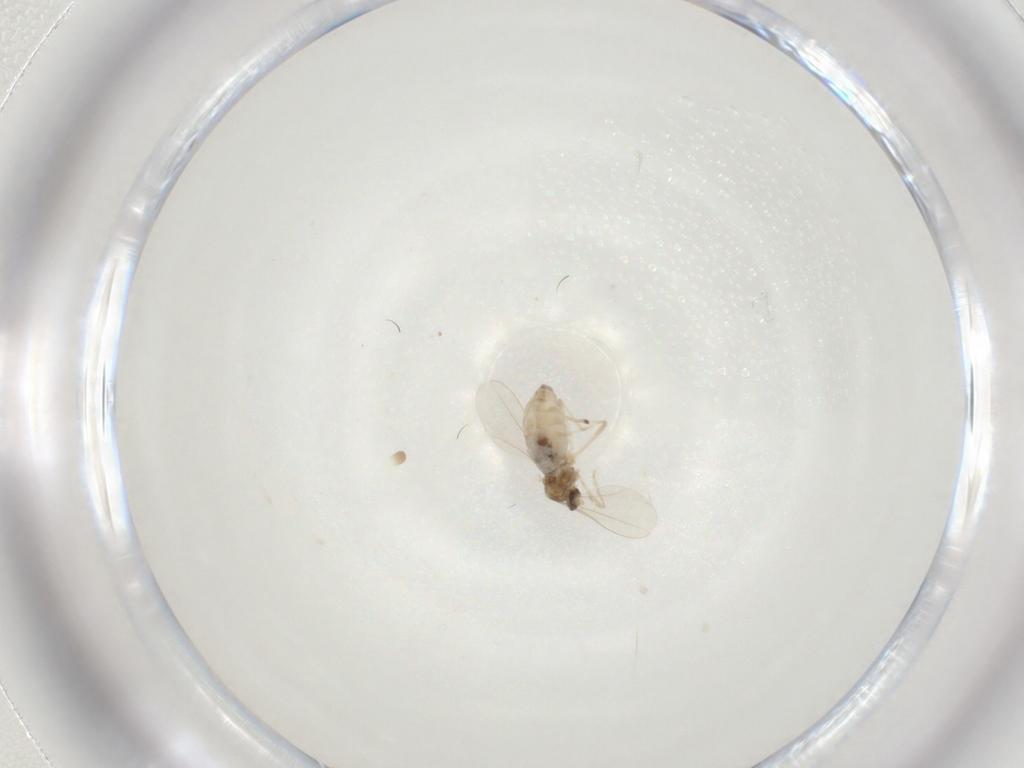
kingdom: Animalia
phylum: Arthropoda
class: Insecta
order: Diptera
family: Cecidomyiidae
